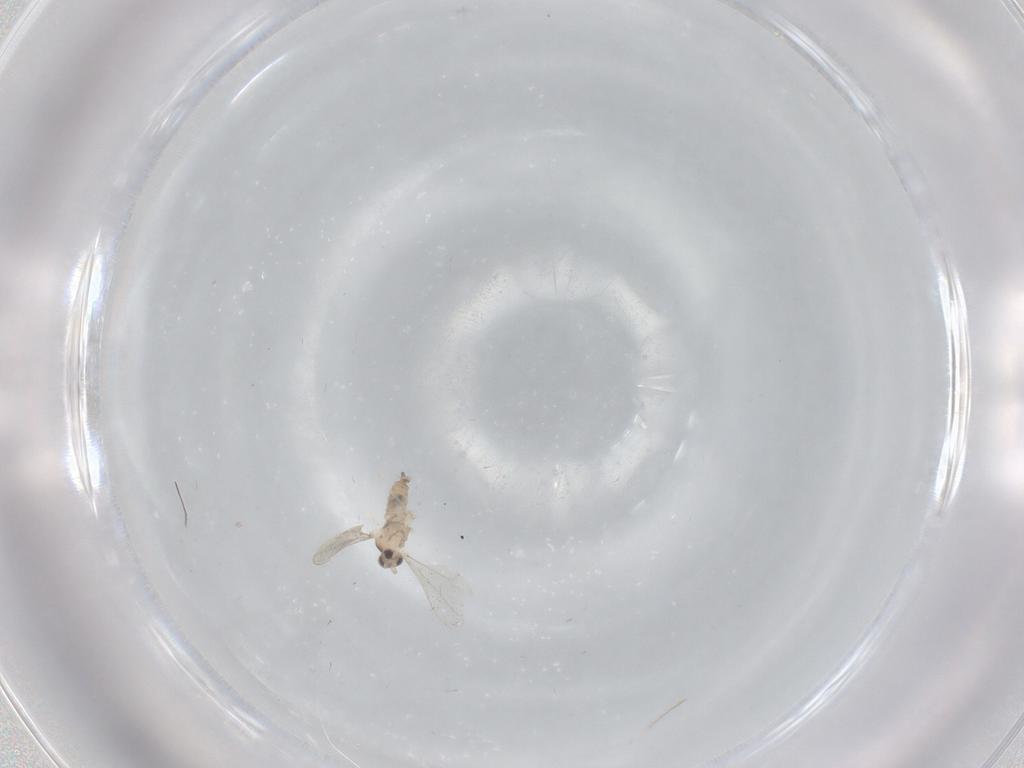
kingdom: Animalia
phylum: Arthropoda
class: Insecta
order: Diptera
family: Cecidomyiidae
